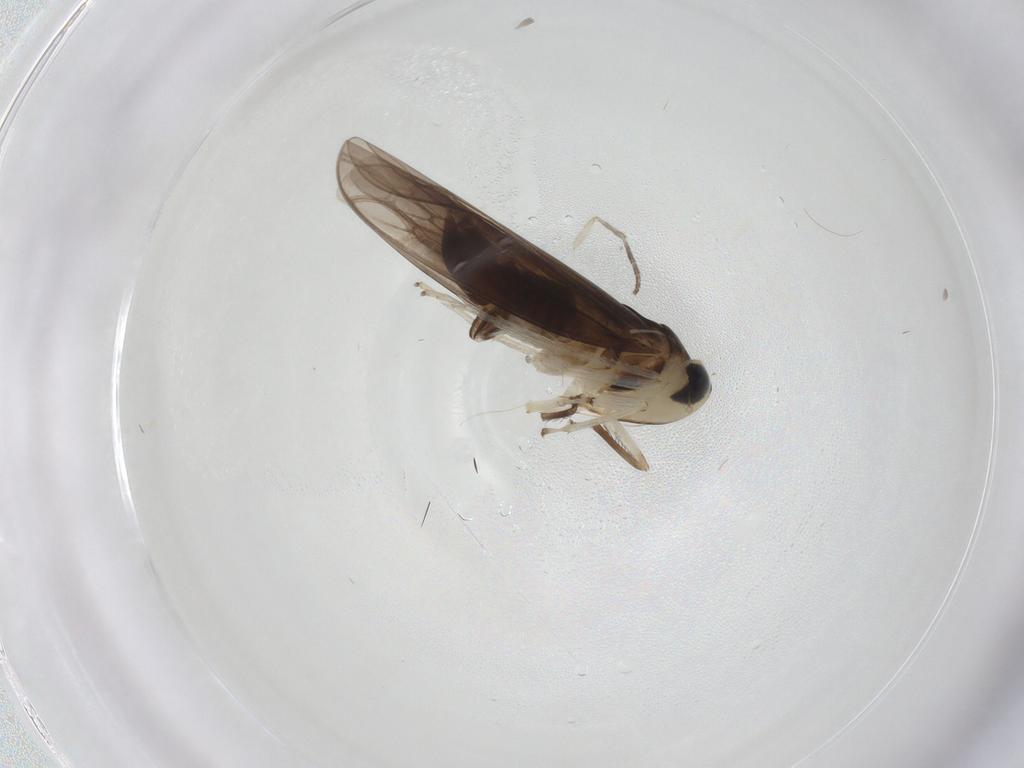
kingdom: Animalia
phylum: Arthropoda
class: Insecta
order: Hemiptera
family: Cicadellidae
